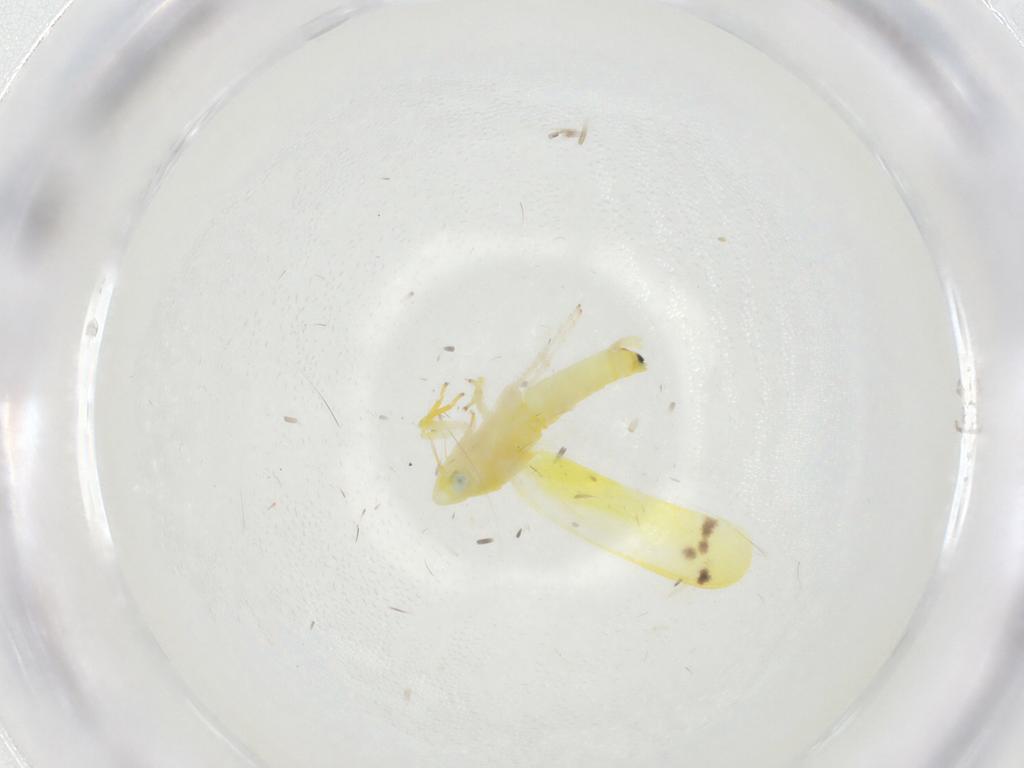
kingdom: Animalia
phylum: Arthropoda
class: Insecta
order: Hemiptera
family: Cicadellidae
